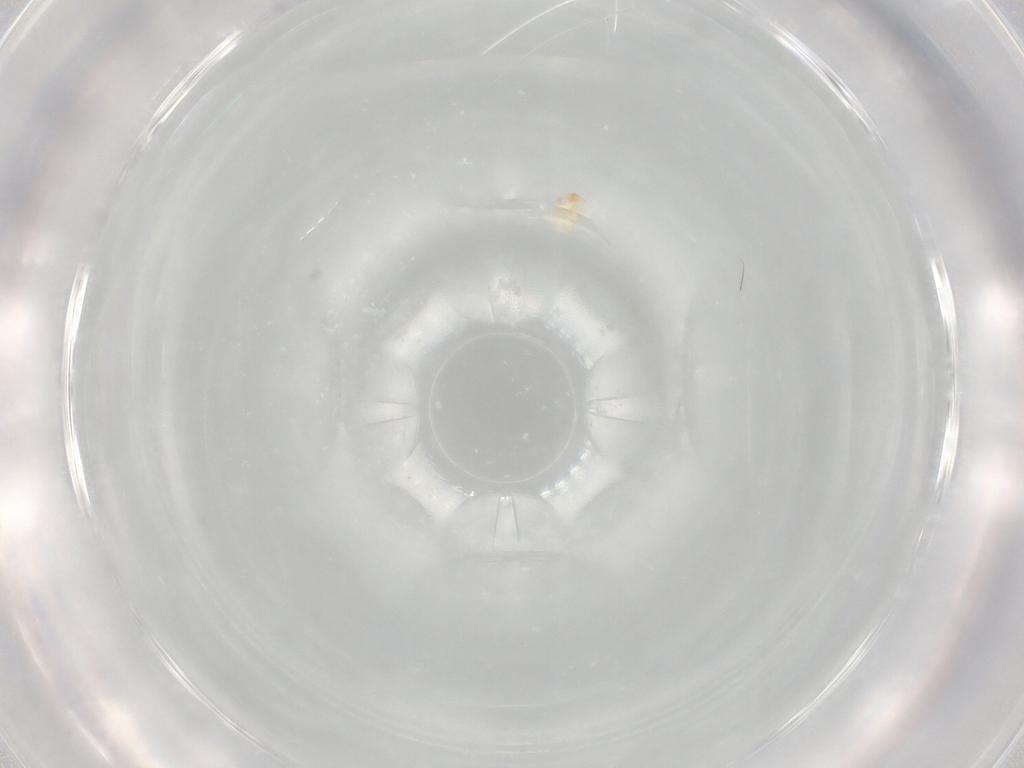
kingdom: Animalia
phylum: Arthropoda
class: Insecta
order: Diptera
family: Polleniidae
